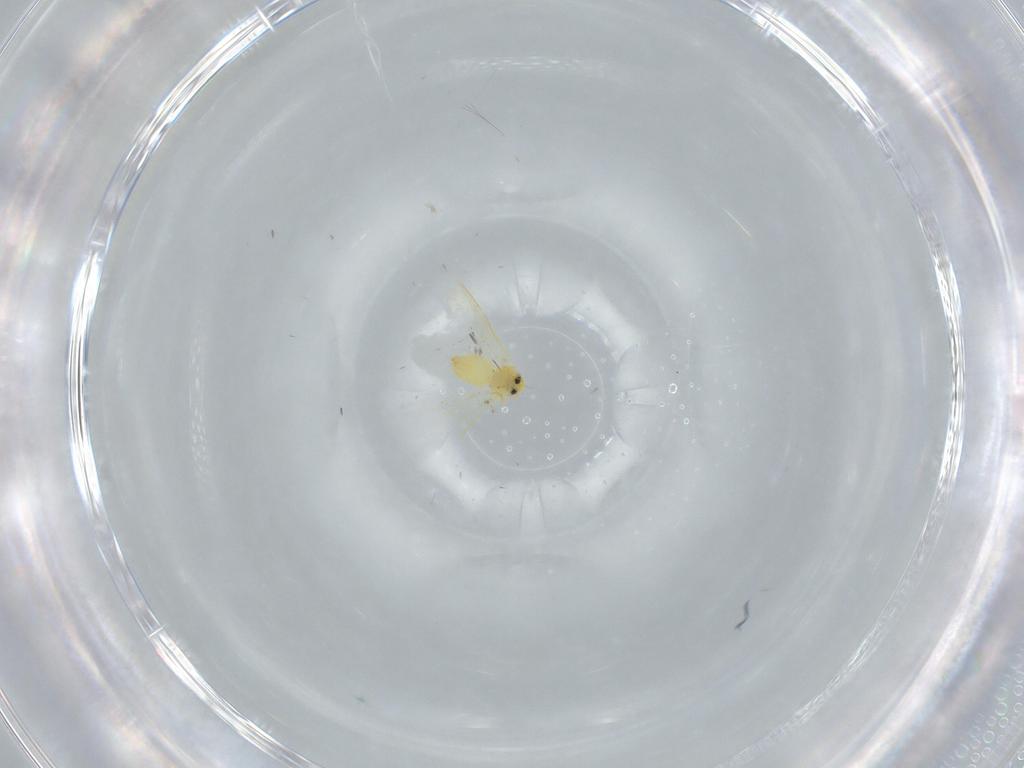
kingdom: Animalia
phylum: Arthropoda
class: Insecta
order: Hemiptera
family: Aleyrodidae
